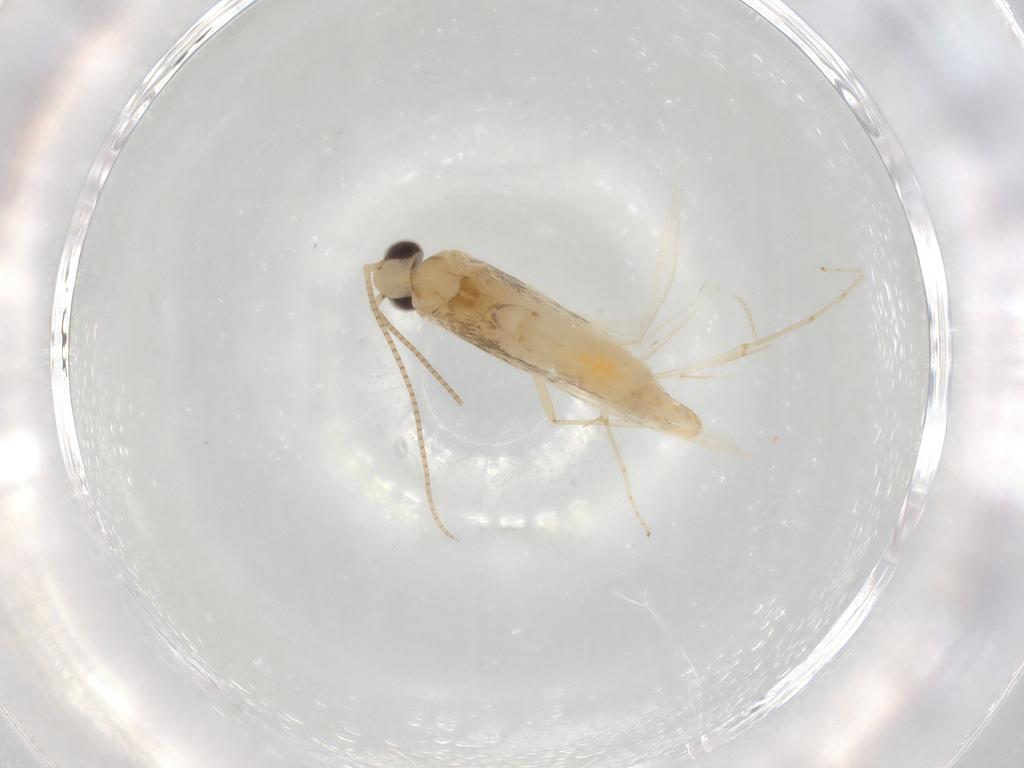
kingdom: Animalia
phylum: Arthropoda
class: Insecta
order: Lepidoptera
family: Gracillariidae
